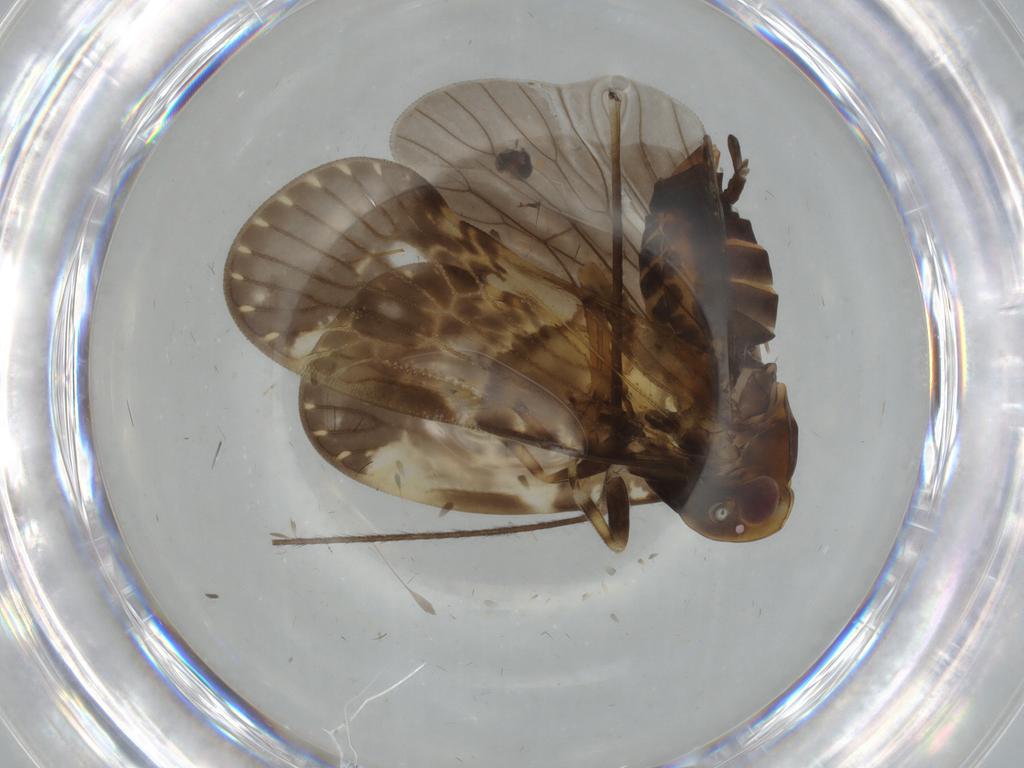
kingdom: Animalia
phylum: Arthropoda
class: Insecta
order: Hemiptera
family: Cixiidae
